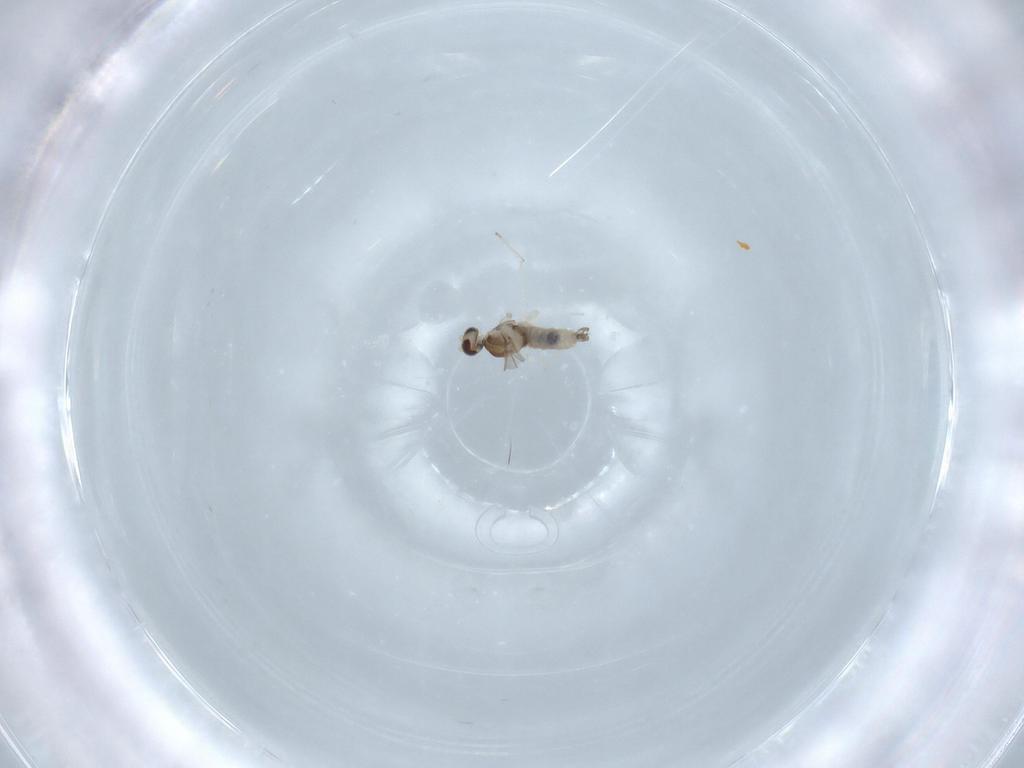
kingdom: Animalia
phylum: Arthropoda
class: Insecta
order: Diptera
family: Cecidomyiidae
